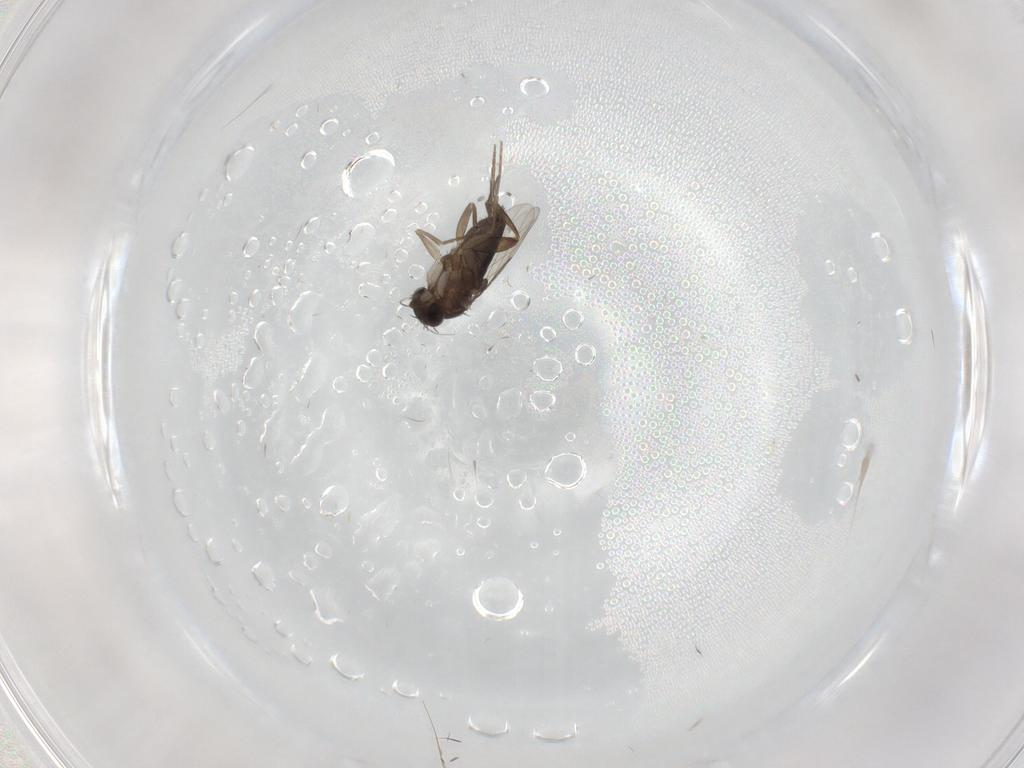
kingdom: Animalia
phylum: Arthropoda
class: Insecta
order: Diptera
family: Phoridae
